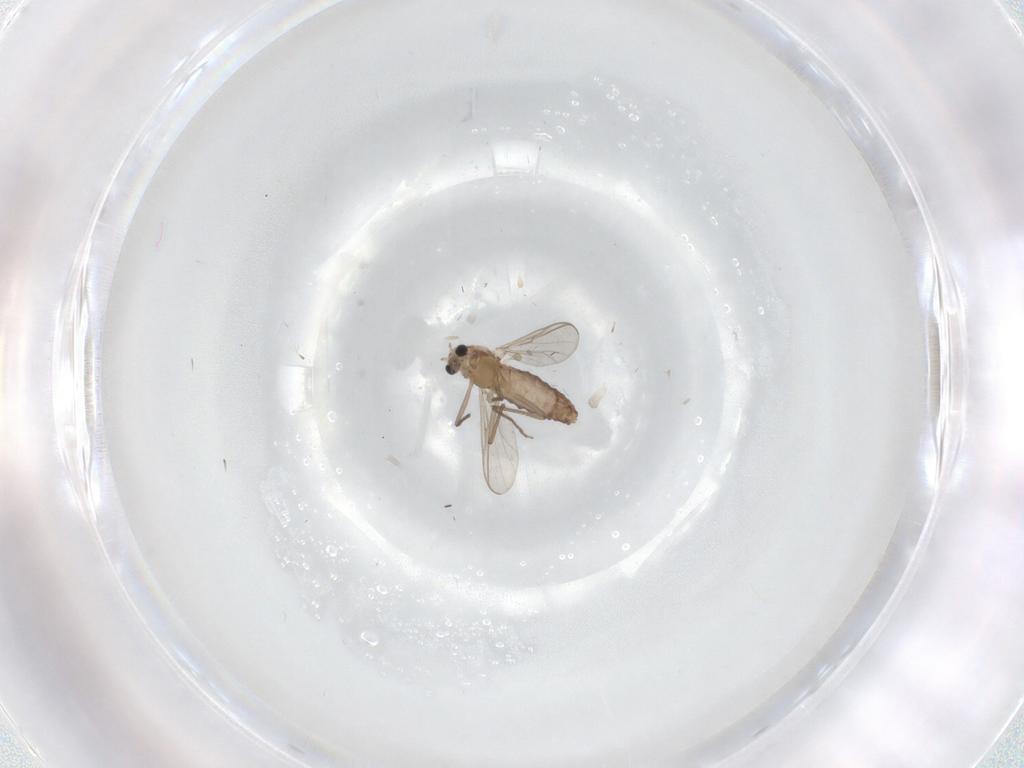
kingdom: Animalia
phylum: Arthropoda
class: Insecta
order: Diptera
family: Chironomidae
